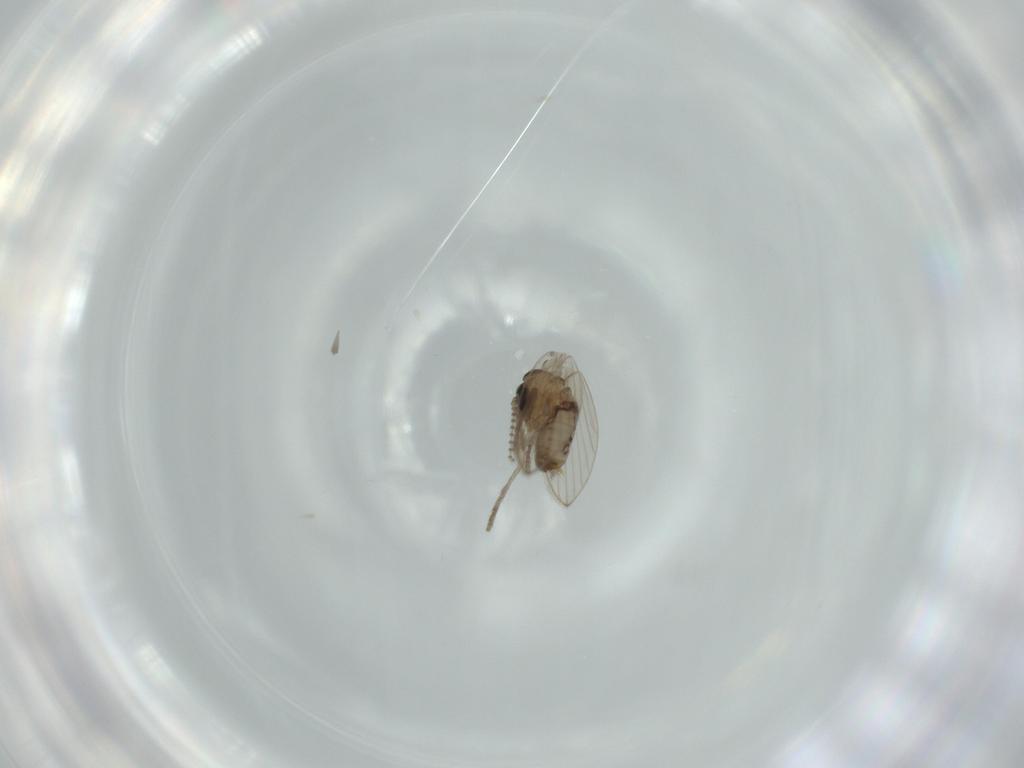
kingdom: Animalia
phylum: Arthropoda
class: Insecta
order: Diptera
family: Psychodidae
